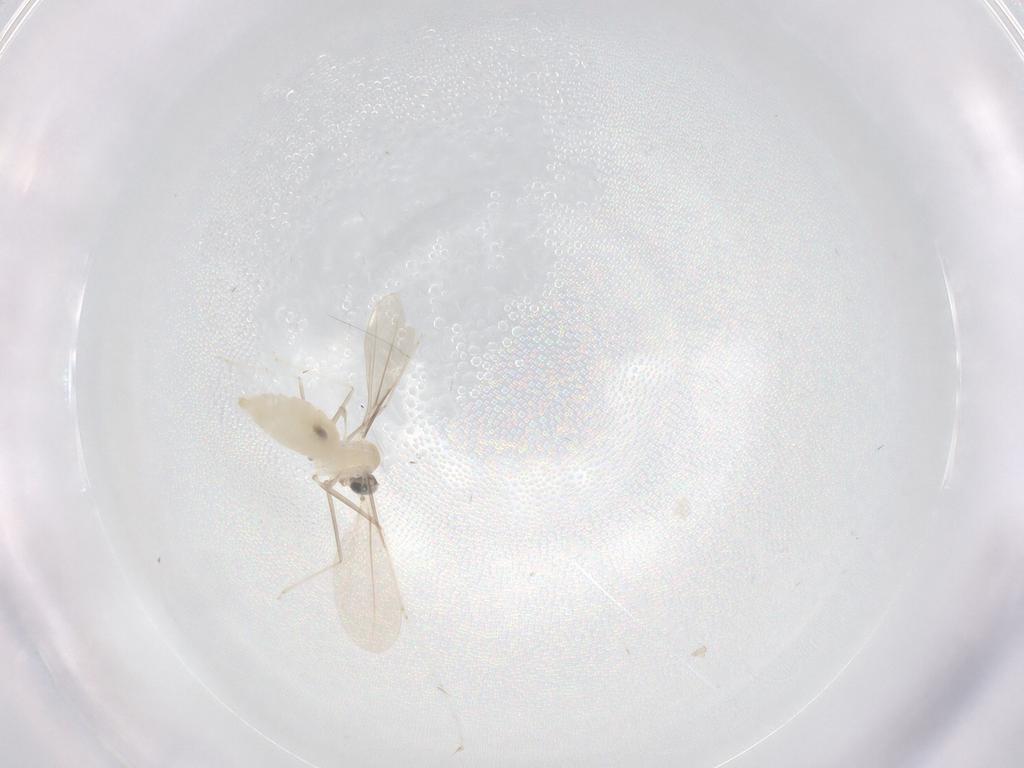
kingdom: Animalia
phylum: Arthropoda
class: Insecta
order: Diptera
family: Cecidomyiidae
